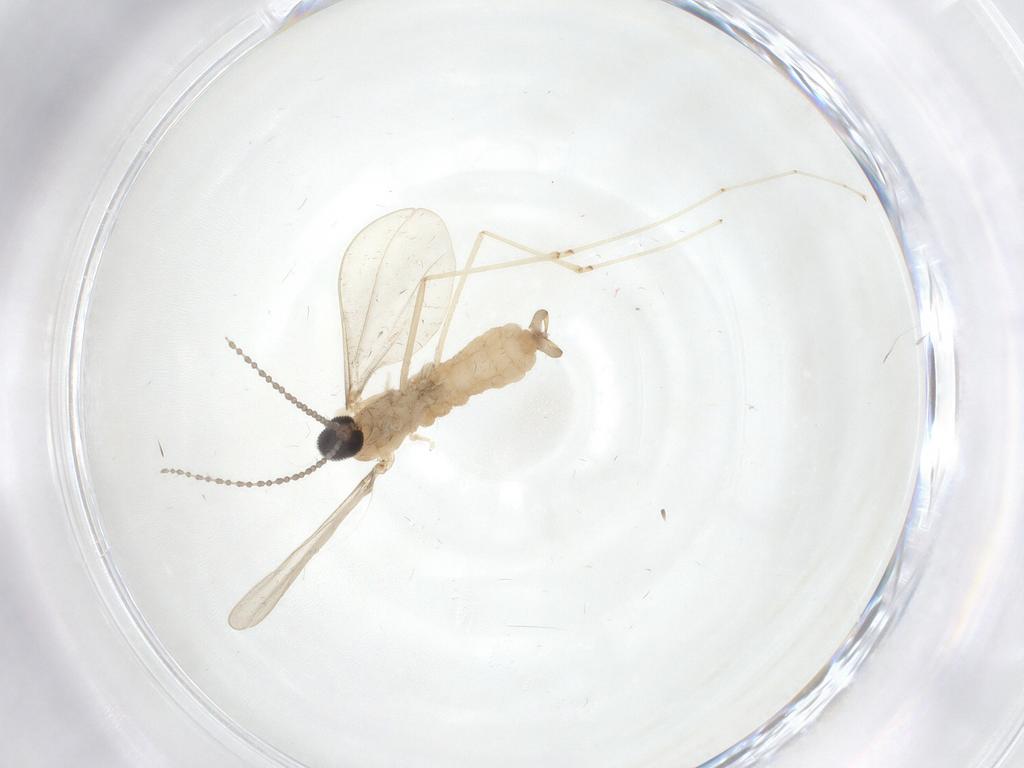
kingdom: Animalia
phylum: Arthropoda
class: Insecta
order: Diptera
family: Cecidomyiidae
